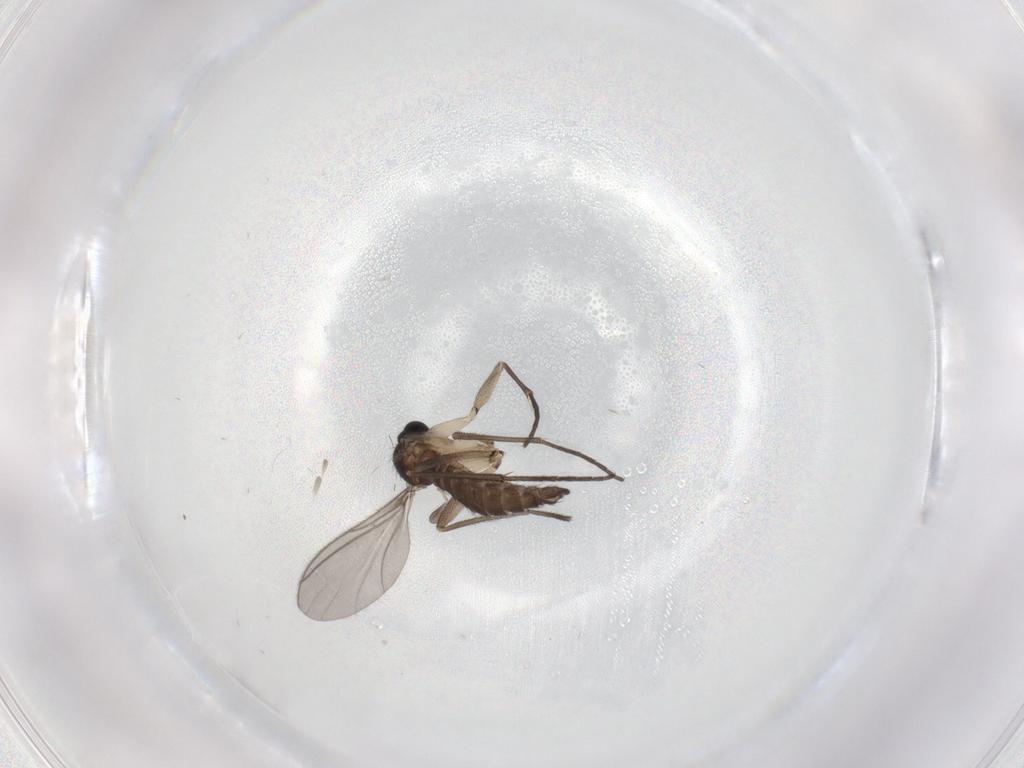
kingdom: Animalia
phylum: Arthropoda
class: Insecta
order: Diptera
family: Sciaridae
